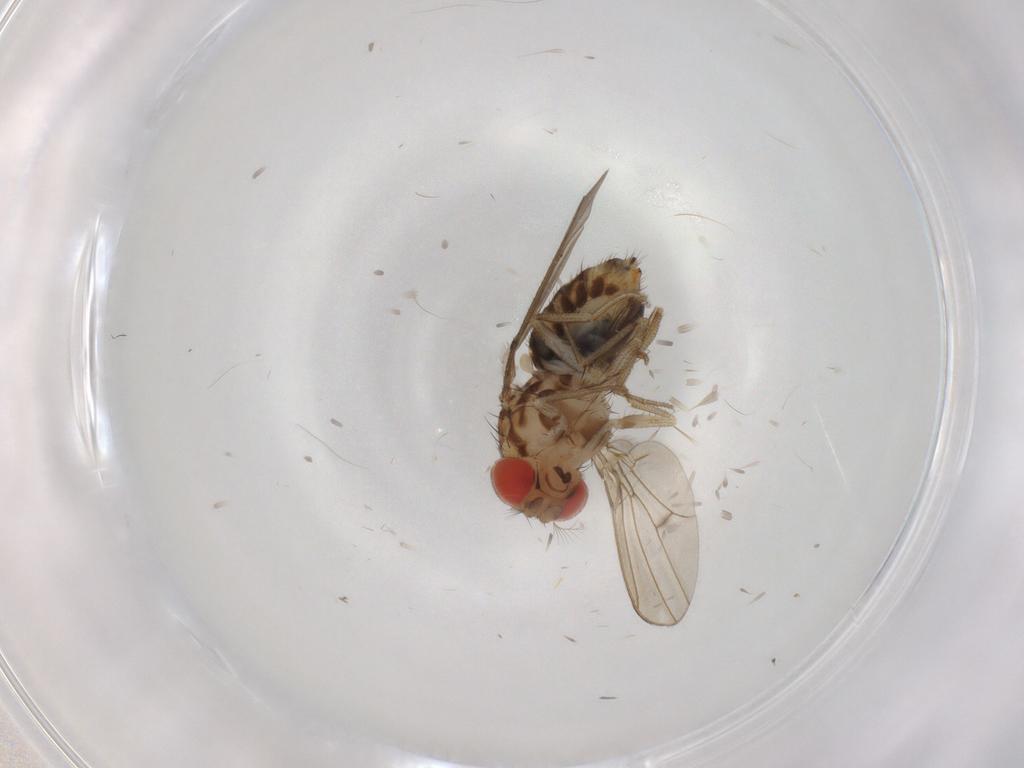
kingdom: Animalia
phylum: Arthropoda
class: Insecta
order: Diptera
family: Drosophilidae
